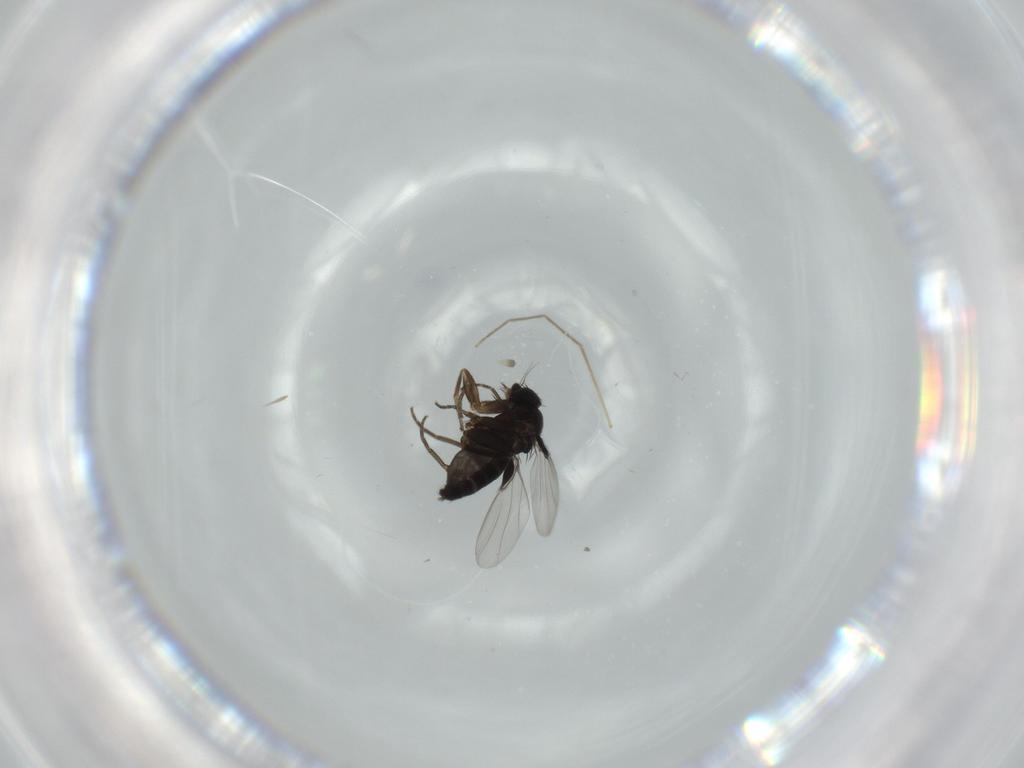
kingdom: Animalia
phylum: Arthropoda
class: Insecta
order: Diptera
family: Phoridae
